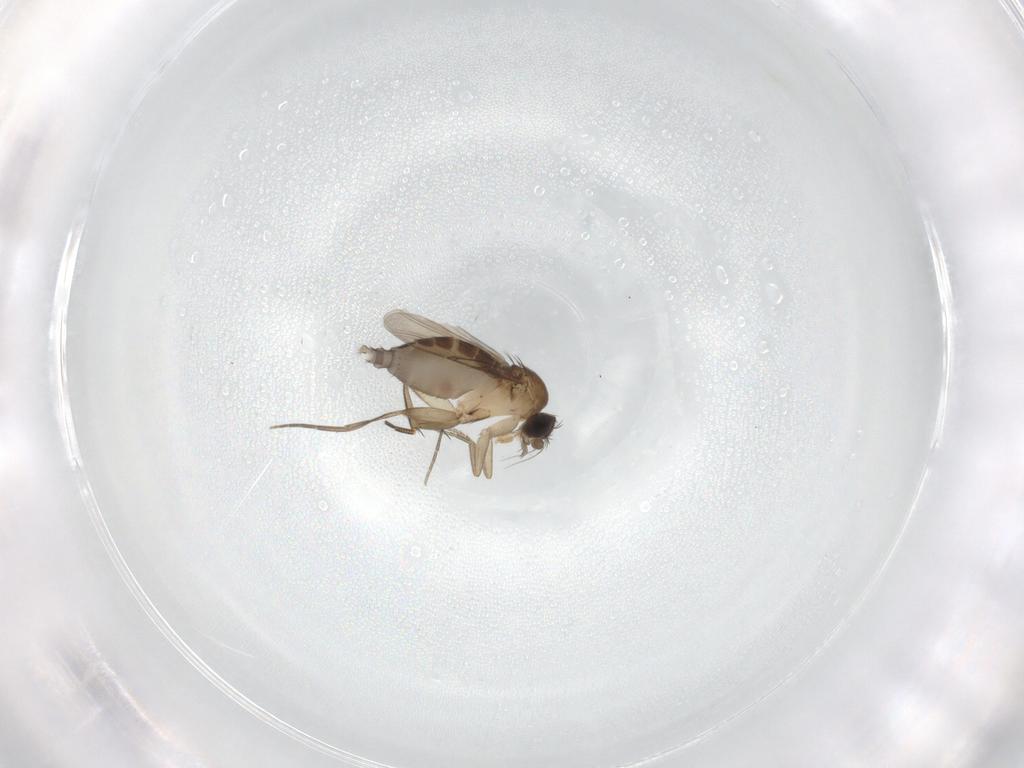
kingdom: Animalia
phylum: Arthropoda
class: Insecta
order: Diptera
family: Phoridae
